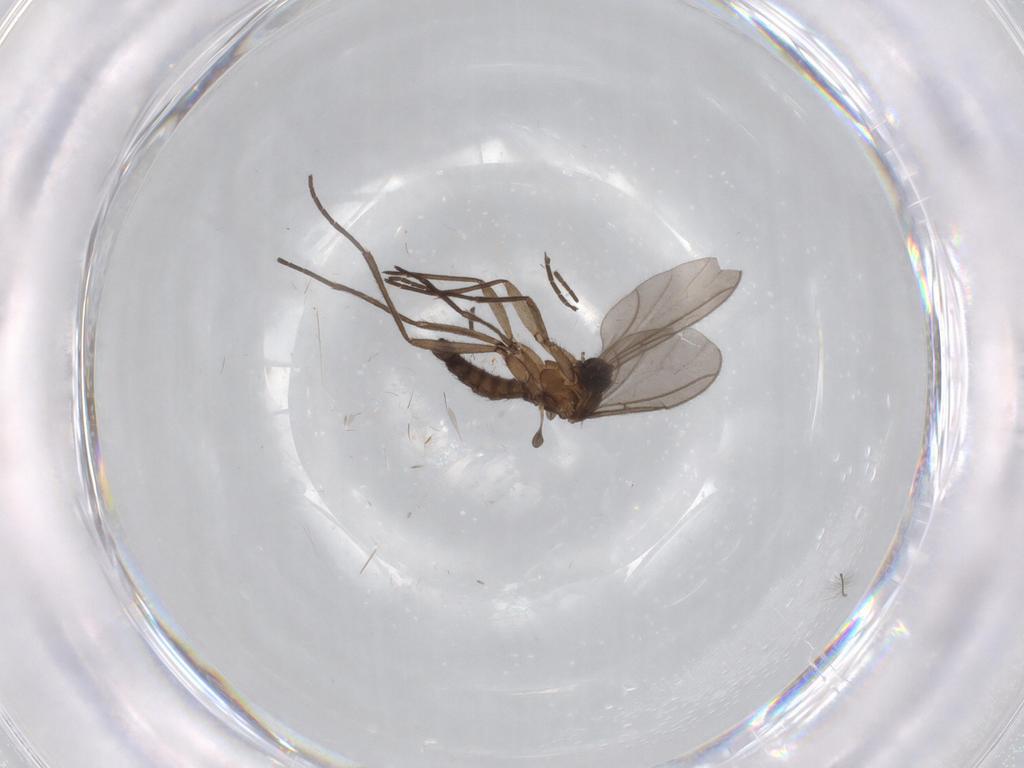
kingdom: Animalia
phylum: Arthropoda
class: Insecta
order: Diptera
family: Chironomidae
